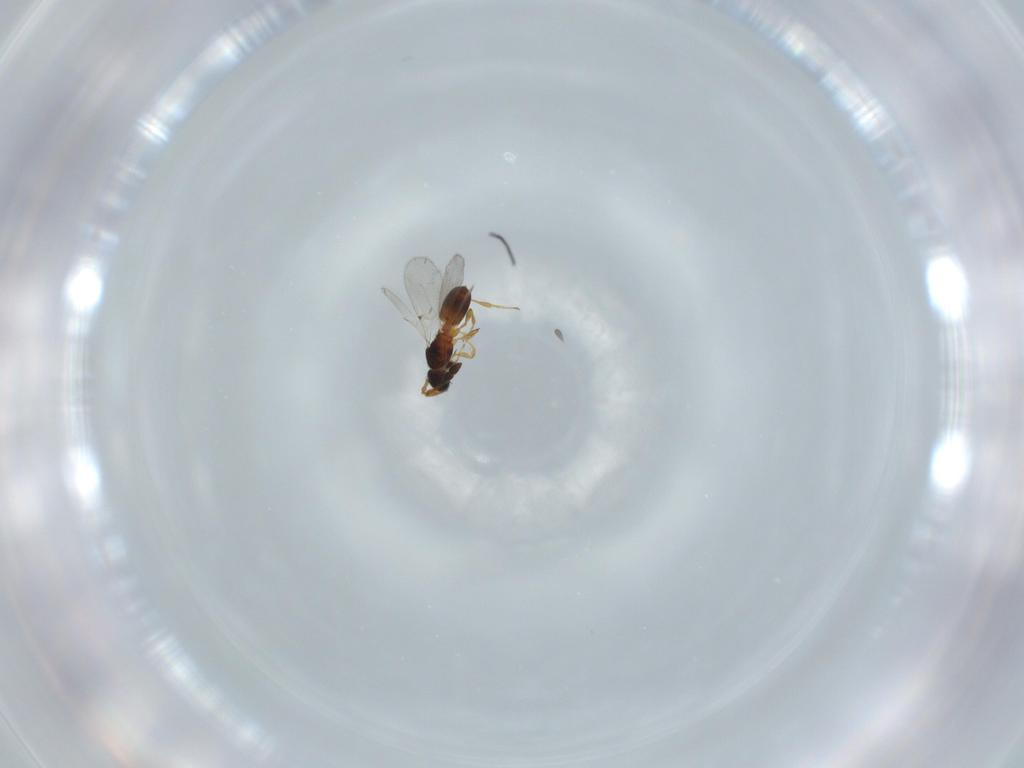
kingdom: Animalia
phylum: Arthropoda
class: Insecta
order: Hymenoptera
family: Diapriidae
